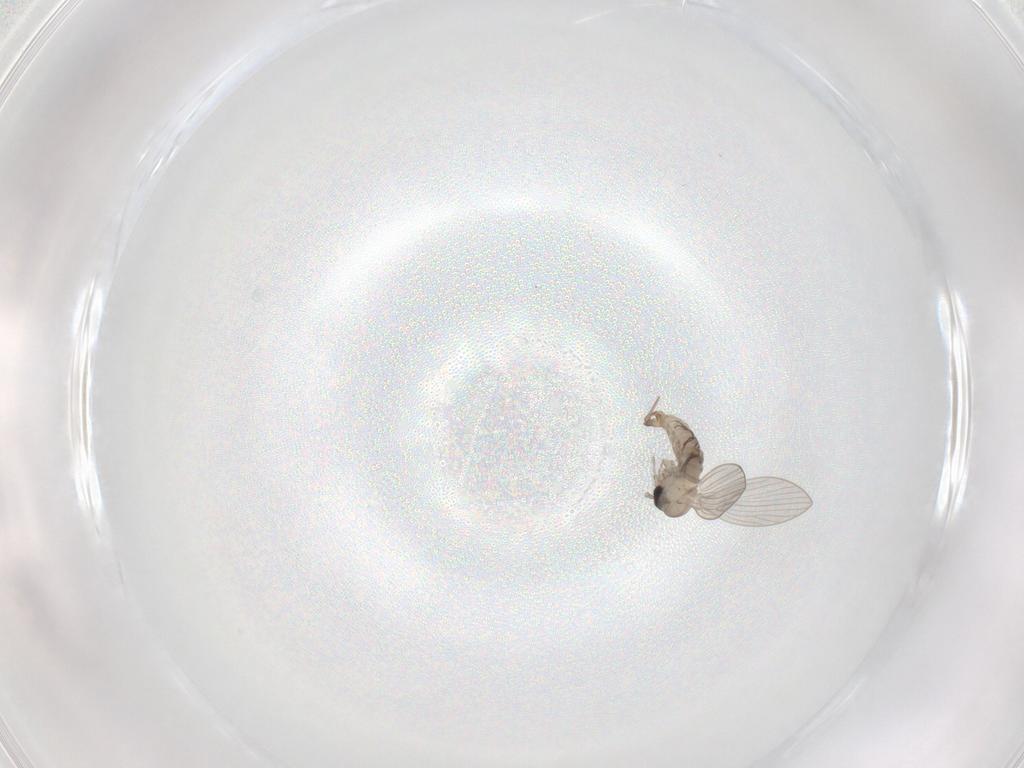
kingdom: Animalia
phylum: Arthropoda
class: Insecta
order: Diptera
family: Psychodidae
